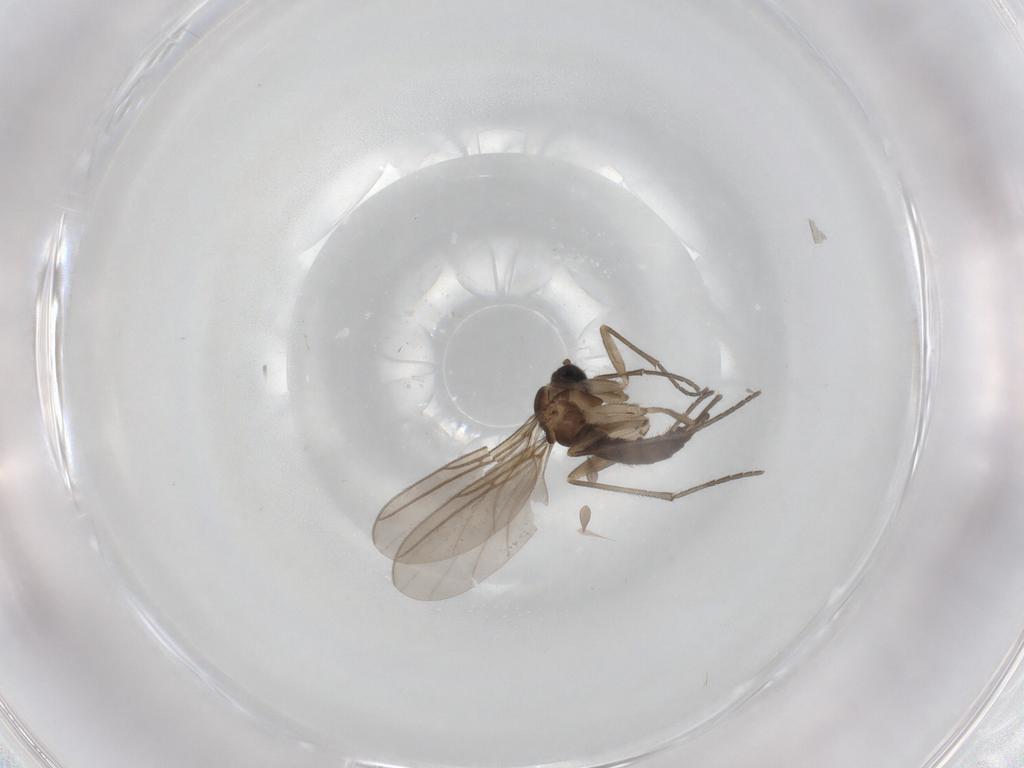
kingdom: Animalia
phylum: Arthropoda
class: Insecta
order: Diptera
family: Sciaridae
